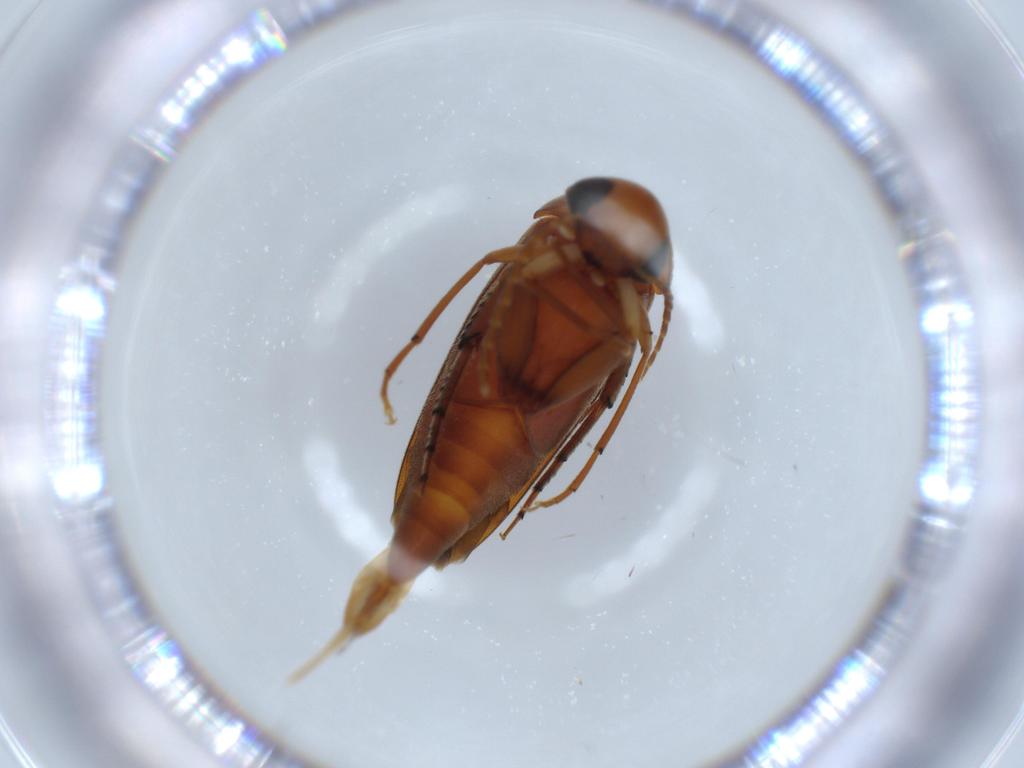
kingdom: Animalia
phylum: Arthropoda
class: Insecta
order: Coleoptera
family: Mordellidae
